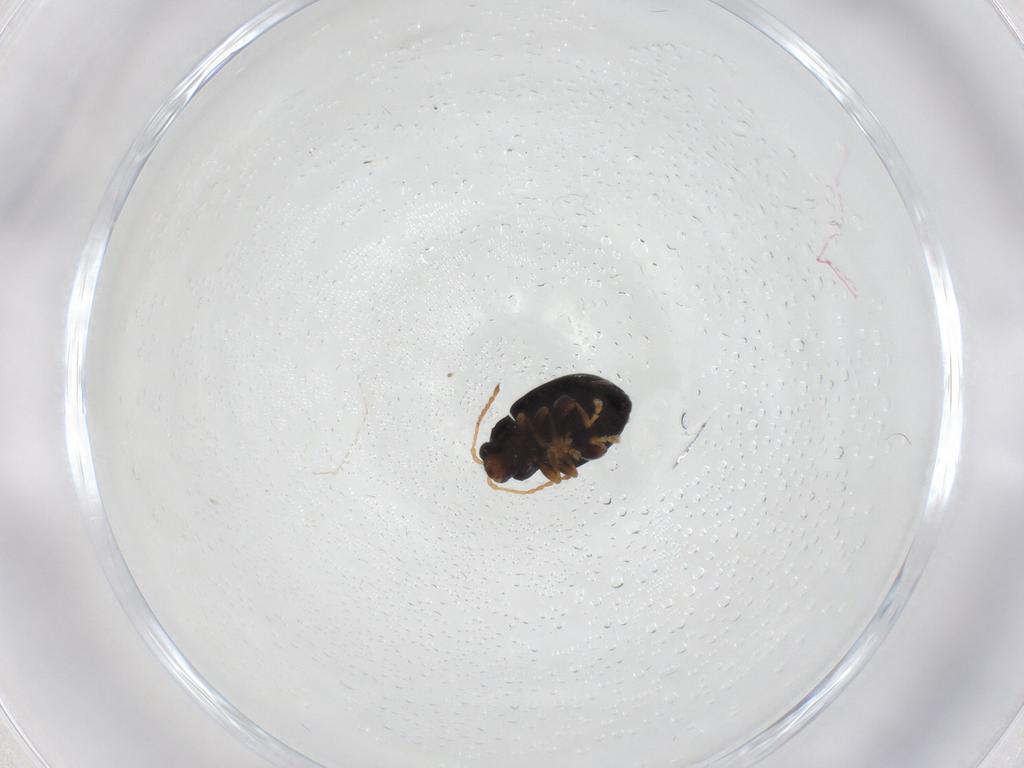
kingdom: Animalia
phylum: Arthropoda
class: Insecta
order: Coleoptera
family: Chrysomelidae
